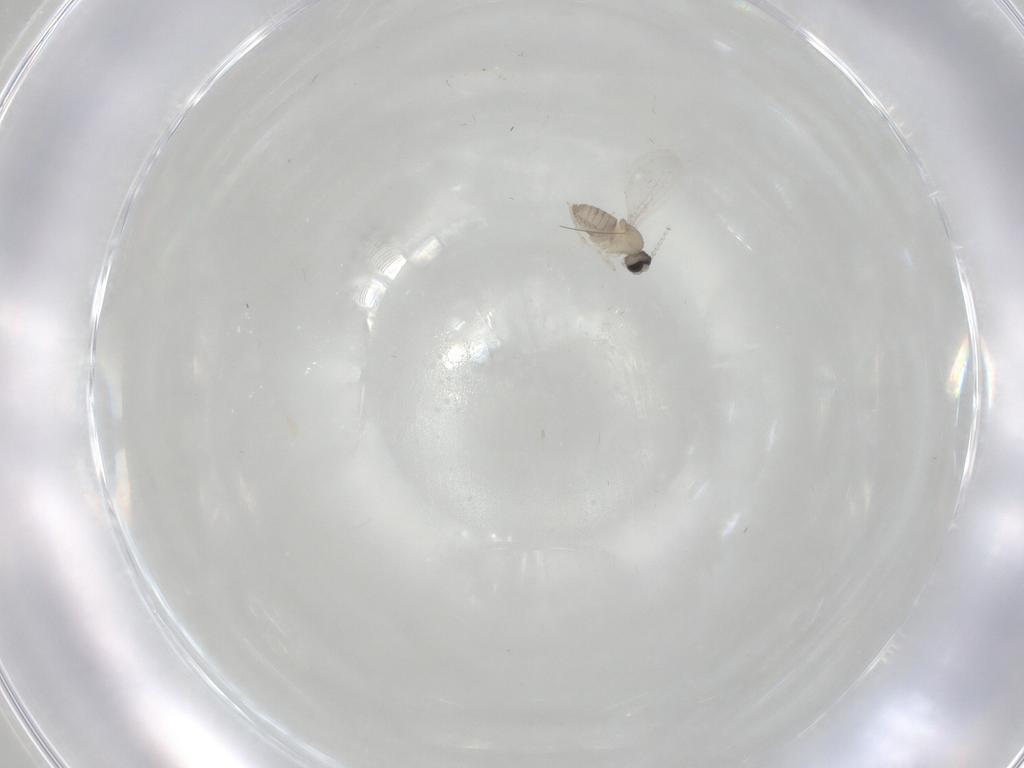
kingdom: Animalia
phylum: Arthropoda
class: Insecta
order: Diptera
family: Cecidomyiidae
